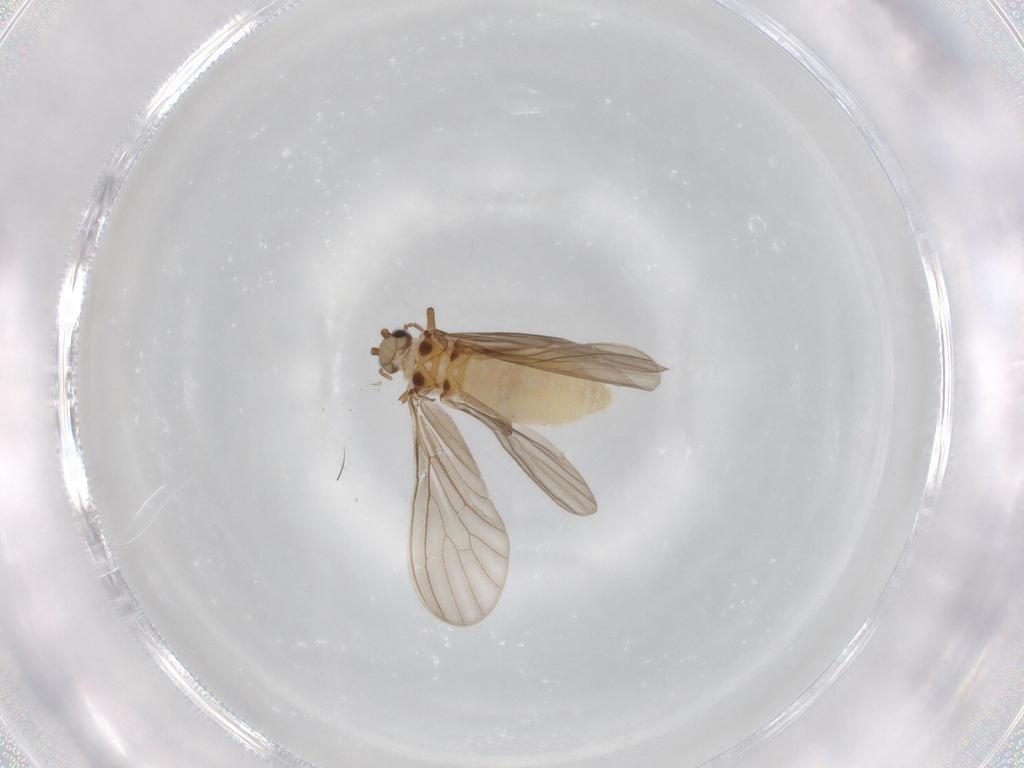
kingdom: Animalia
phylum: Arthropoda
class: Insecta
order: Neuroptera
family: Coniopterygidae
